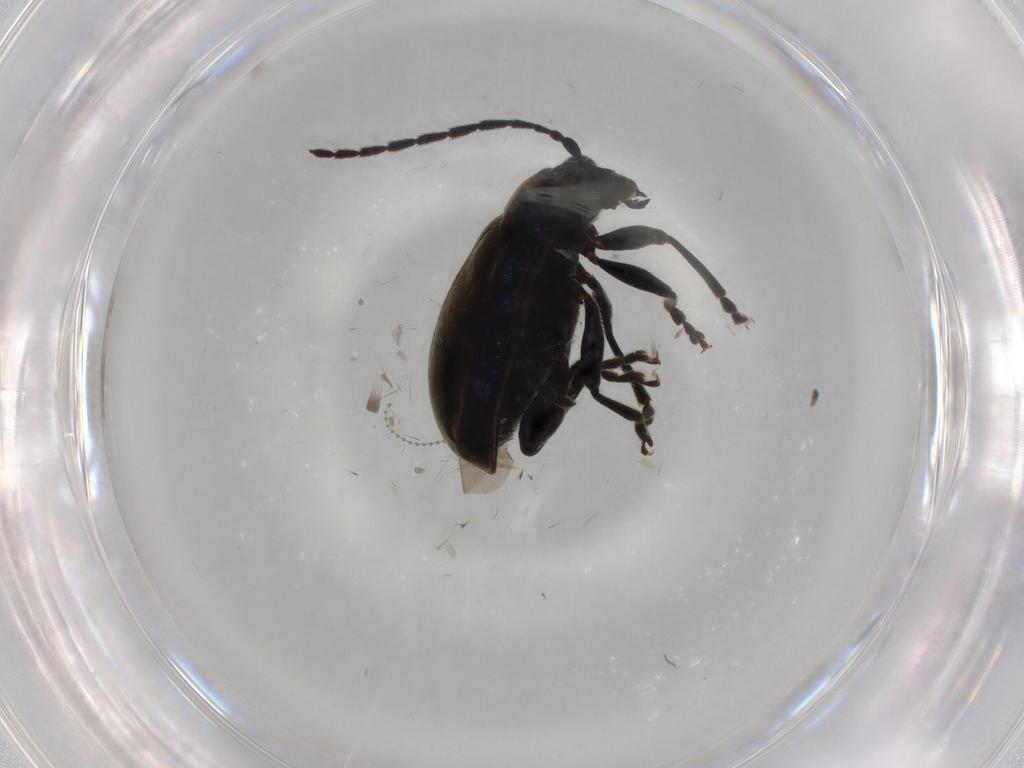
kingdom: Animalia
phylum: Arthropoda
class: Insecta
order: Coleoptera
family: Chrysomelidae
